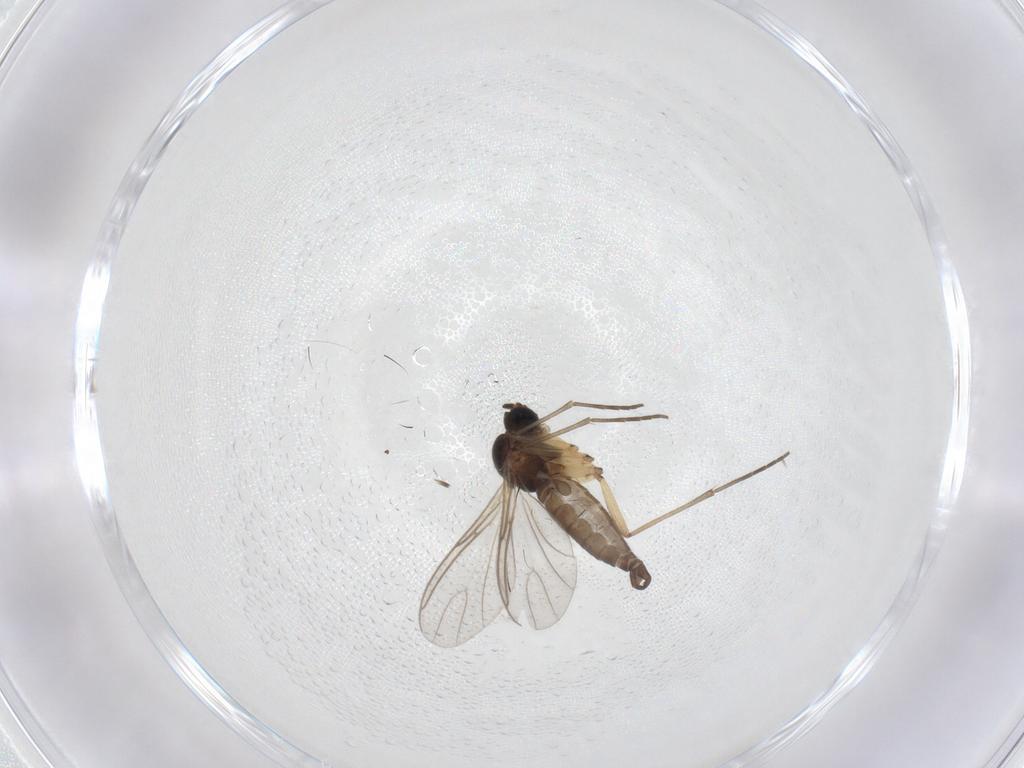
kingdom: Animalia
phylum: Arthropoda
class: Insecta
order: Diptera
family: Sciaridae
